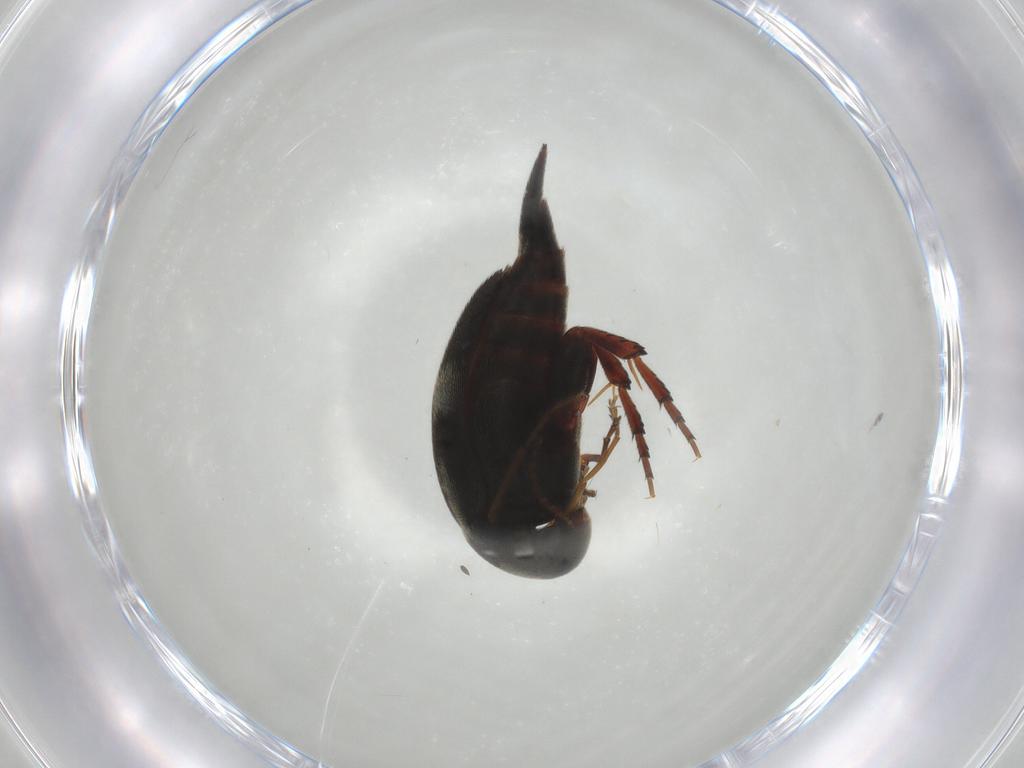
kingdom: Animalia
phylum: Arthropoda
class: Insecta
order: Coleoptera
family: Mordellidae
